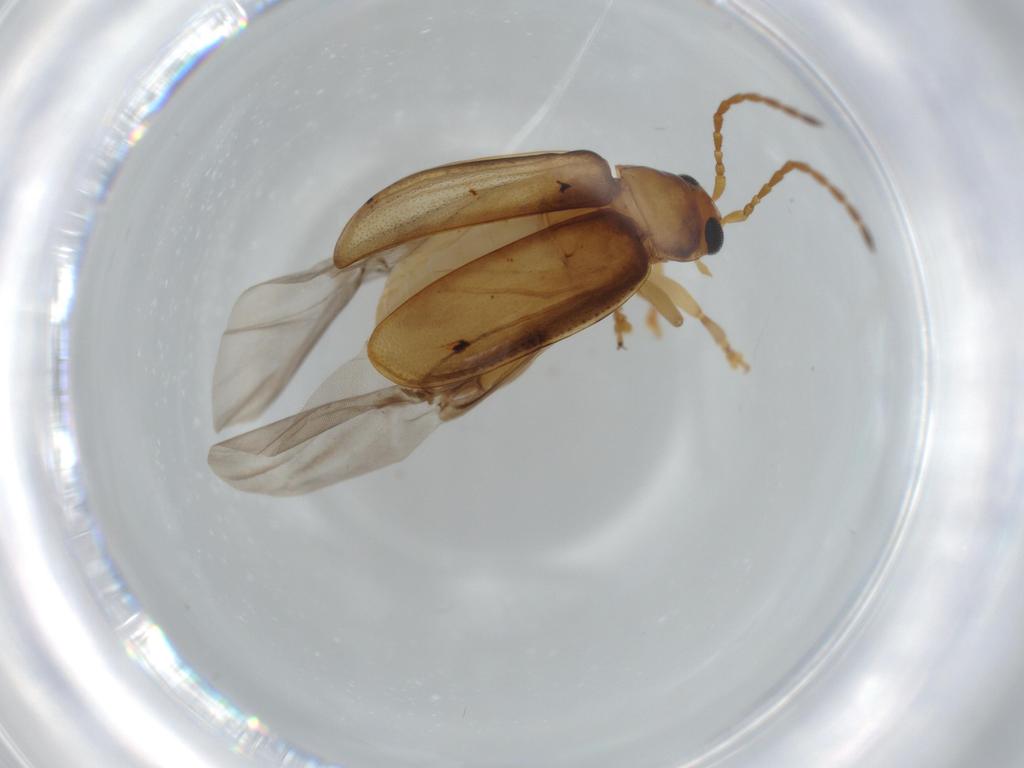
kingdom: Animalia
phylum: Arthropoda
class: Insecta
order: Coleoptera
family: Chrysomelidae
